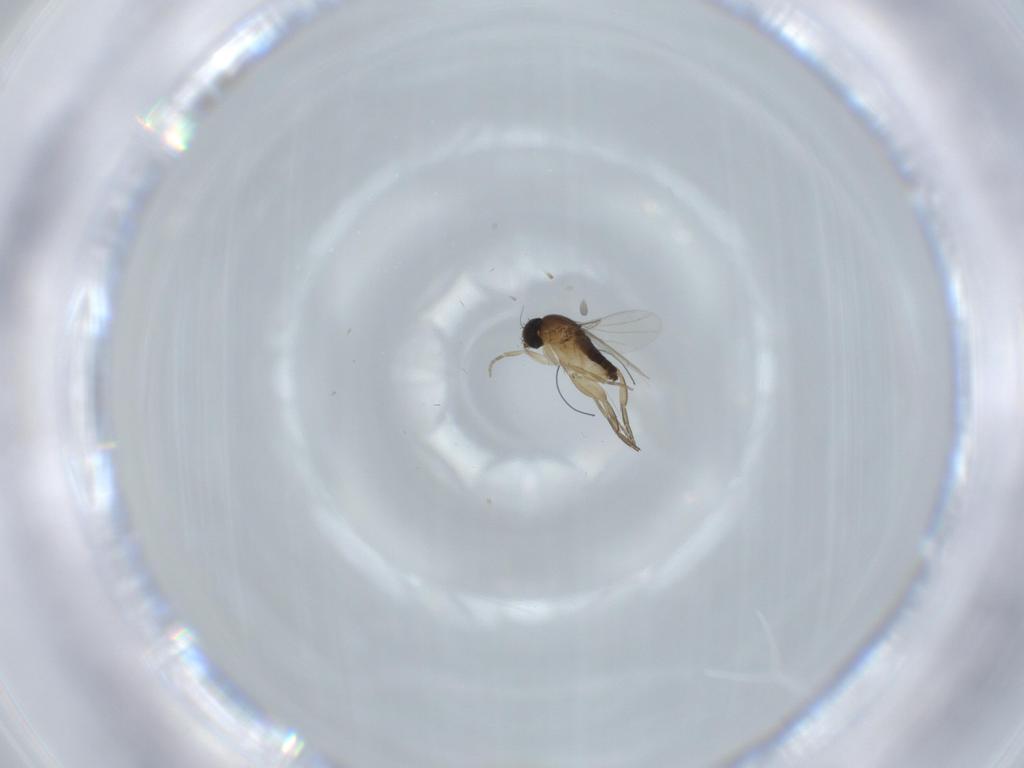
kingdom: Animalia
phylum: Arthropoda
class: Insecta
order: Diptera
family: Phoridae
